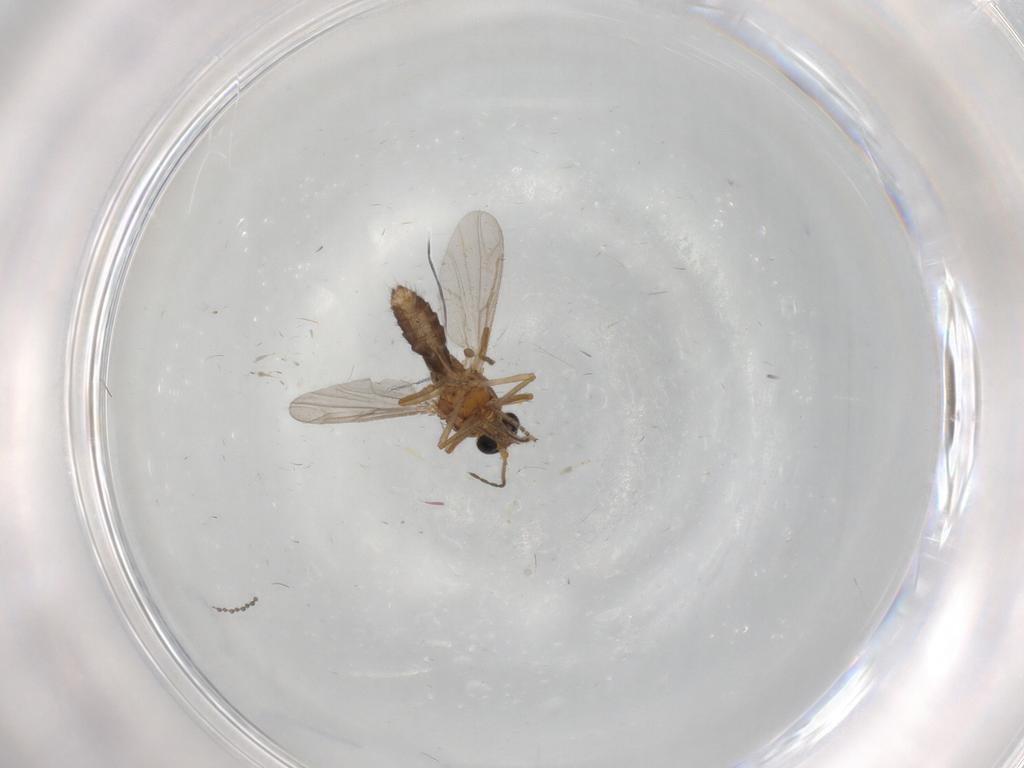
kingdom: Animalia
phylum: Arthropoda
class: Insecta
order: Diptera
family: Ceratopogonidae
